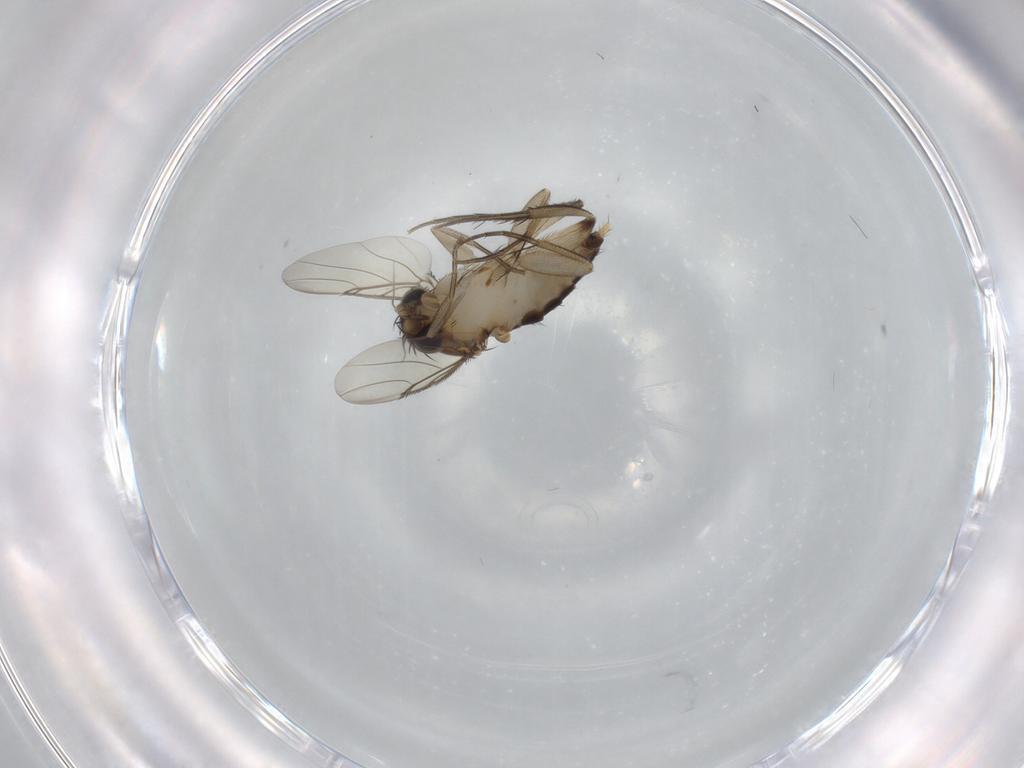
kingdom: Animalia
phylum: Arthropoda
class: Insecta
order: Diptera
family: Phoridae
